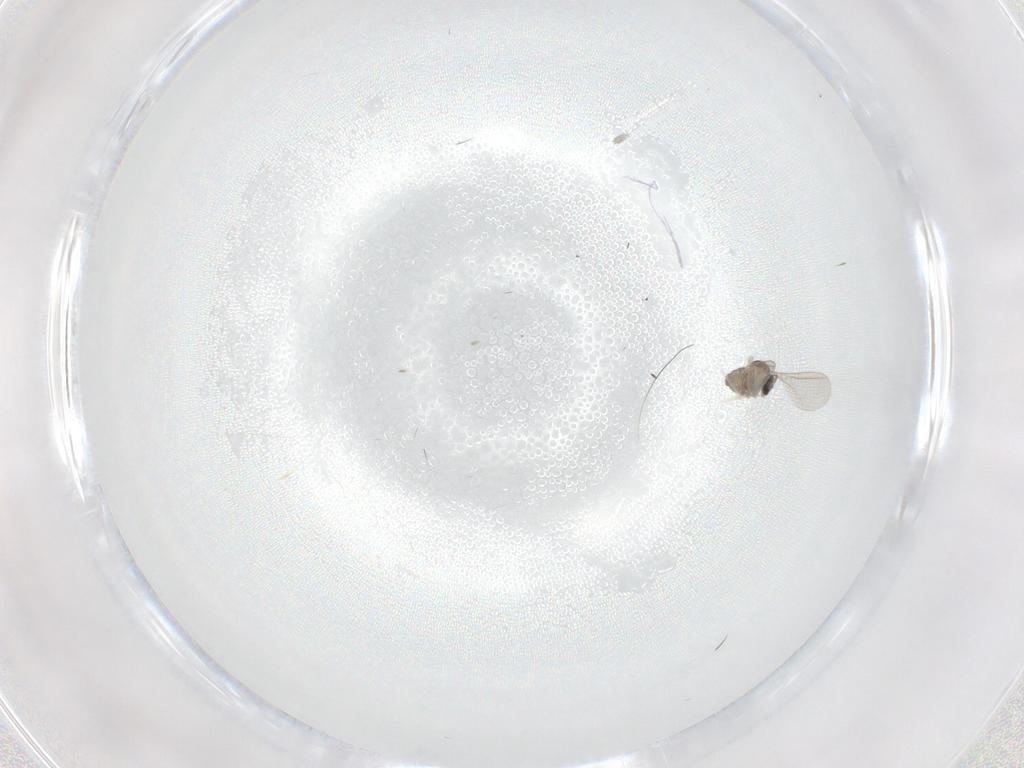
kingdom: Animalia
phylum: Arthropoda
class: Insecta
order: Diptera
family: Cecidomyiidae
